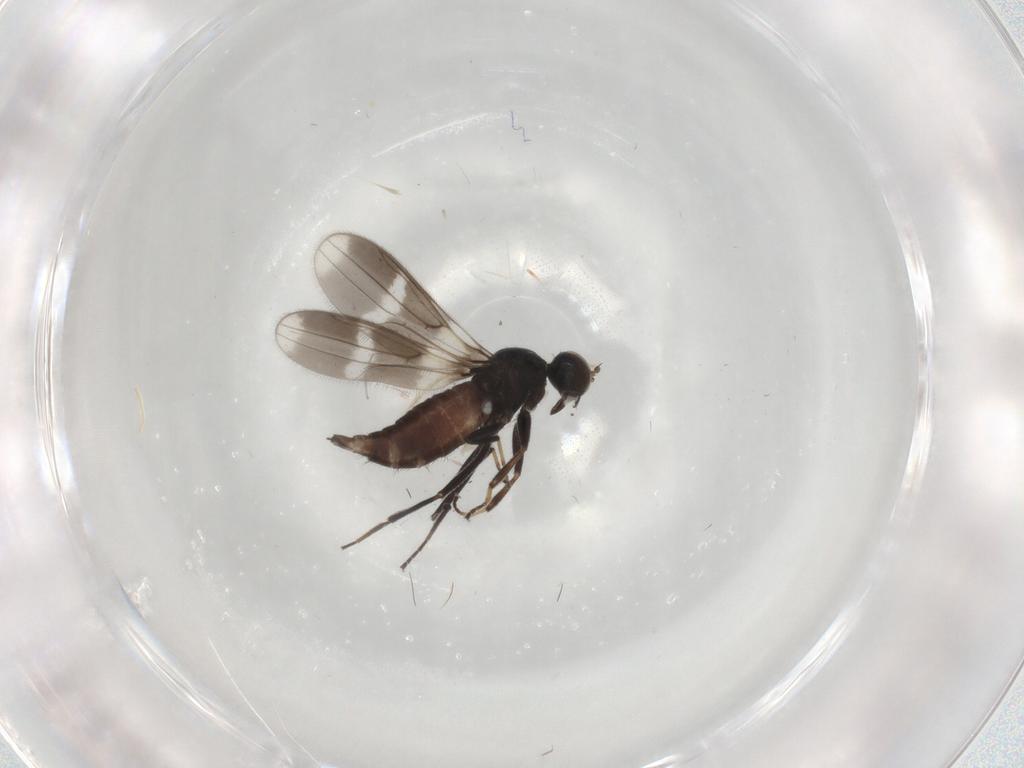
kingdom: Animalia
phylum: Arthropoda
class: Insecta
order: Diptera
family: Hybotidae
